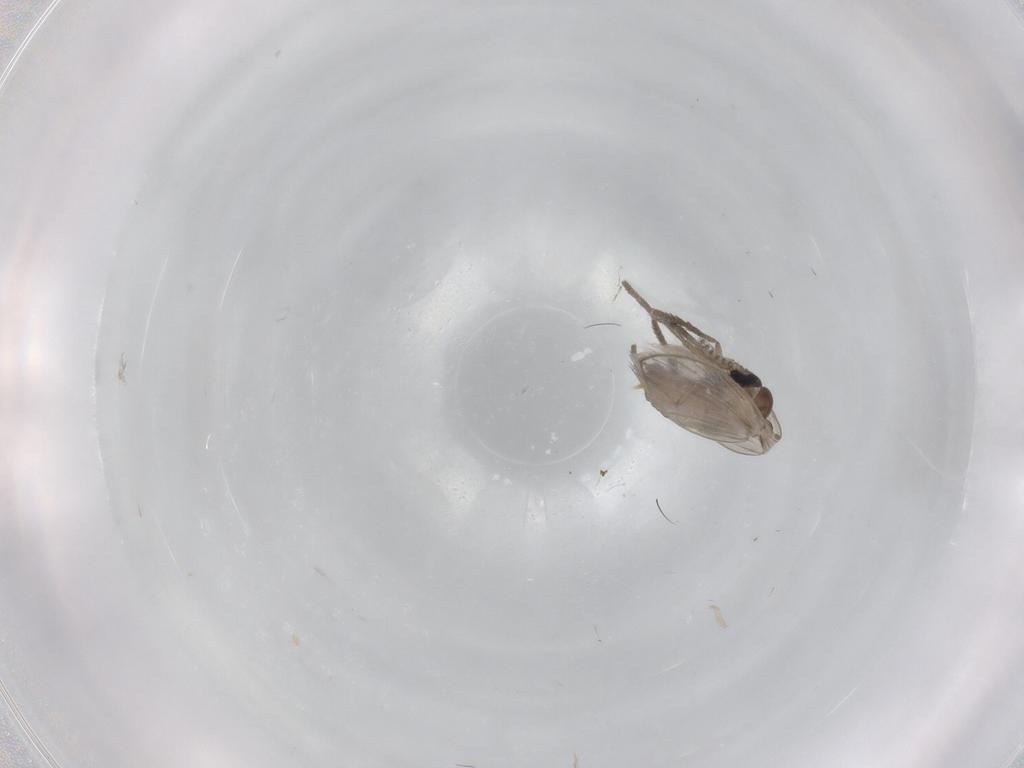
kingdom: Animalia
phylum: Arthropoda
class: Insecta
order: Diptera
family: Psychodidae
